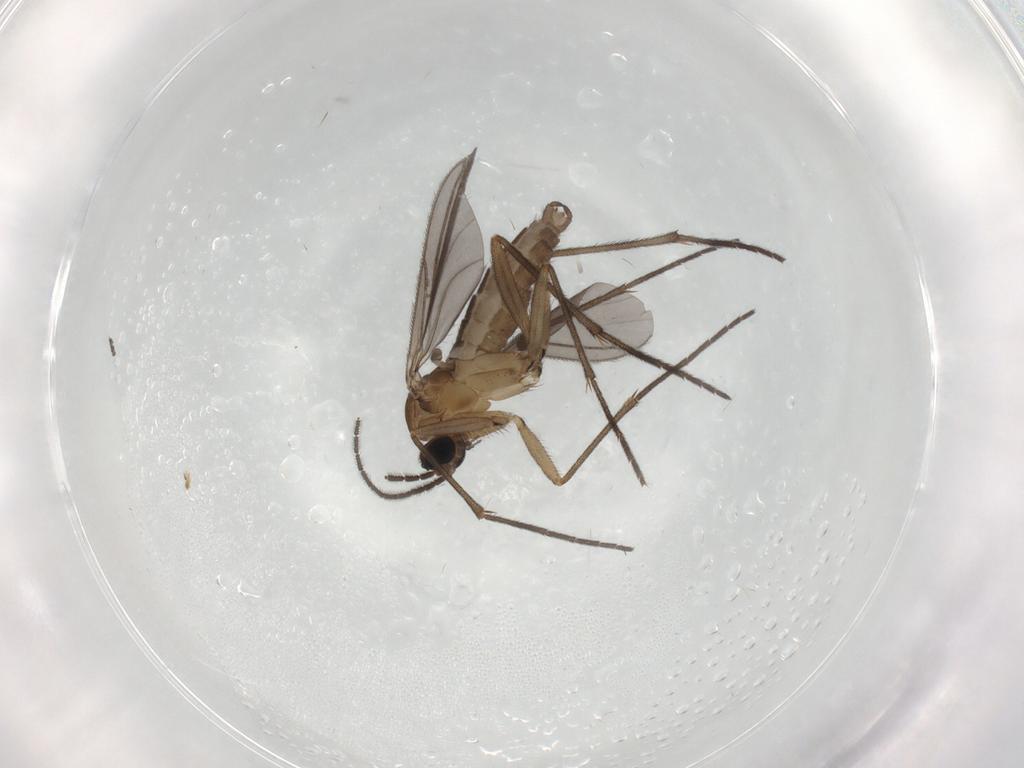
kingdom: Animalia
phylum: Arthropoda
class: Insecta
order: Diptera
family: Sciaridae
